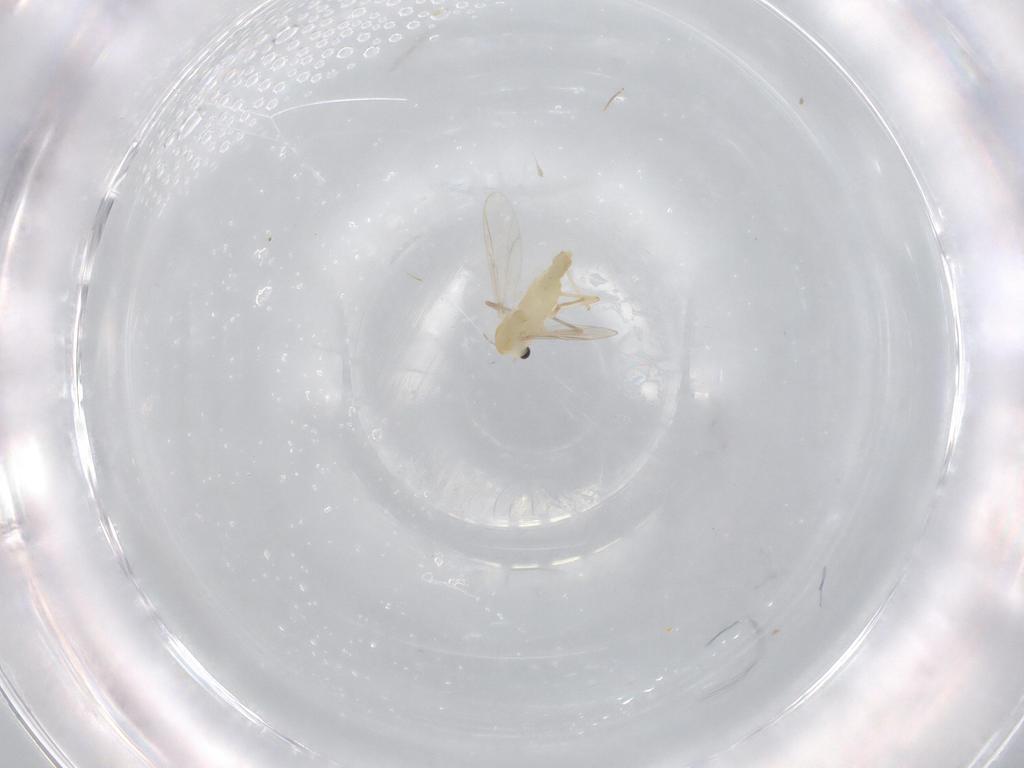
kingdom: Animalia
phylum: Arthropoda
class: Insecta
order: Diptera
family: Chironomidae
